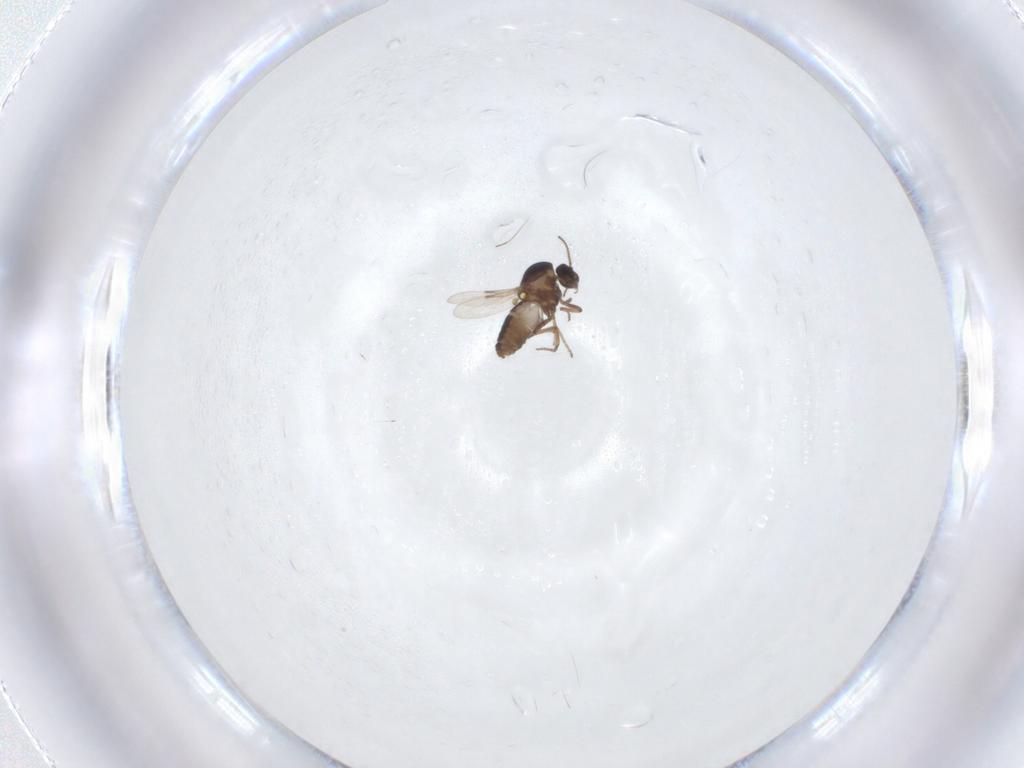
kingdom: Animalia
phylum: Arthropoda
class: Insecta
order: Diptera
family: Ceratopogonidae
